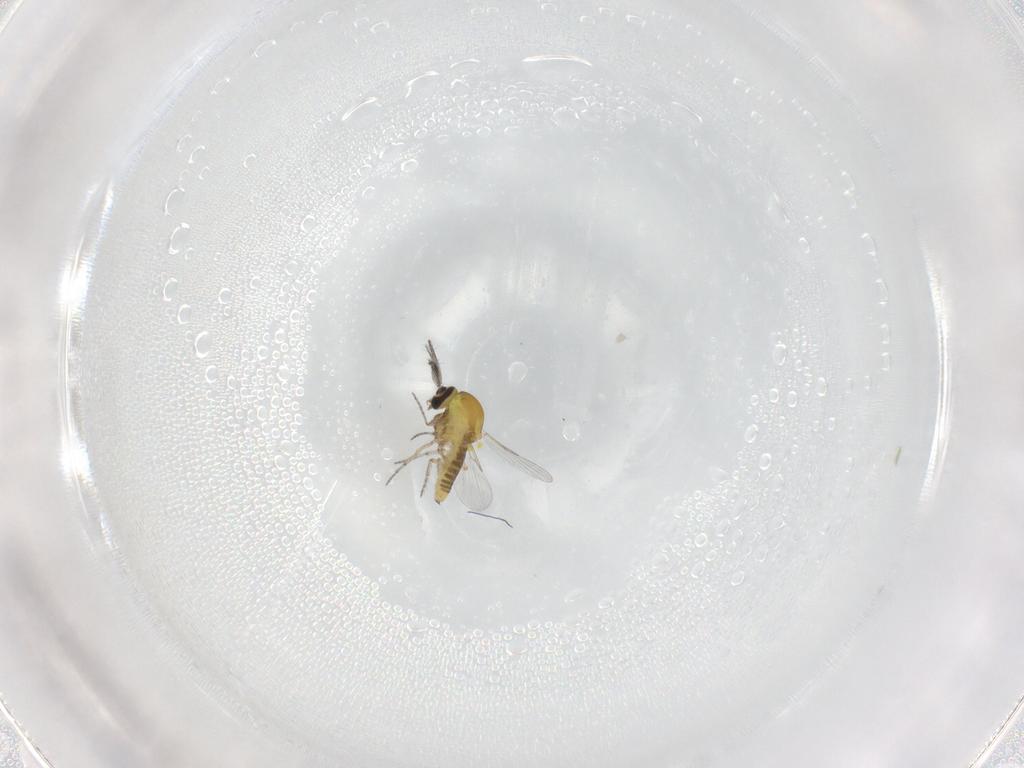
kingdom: Animalia
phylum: Arthropoda
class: Insecta
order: Diptera
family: Ceratopogonidae
